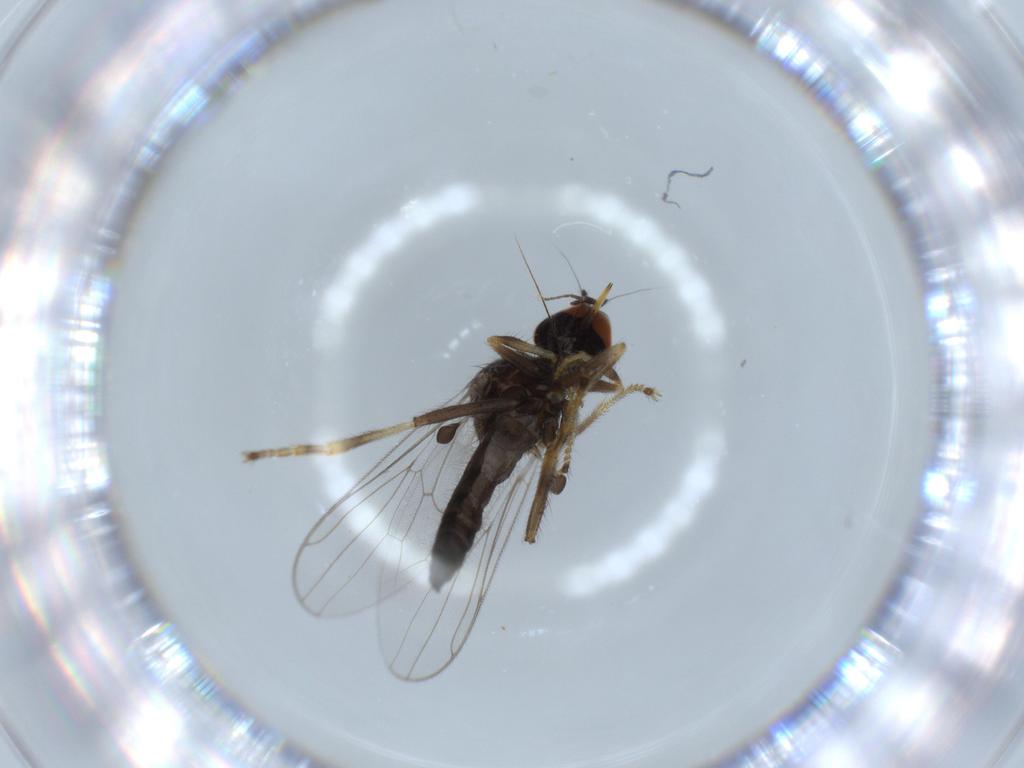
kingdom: Animalia
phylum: Arthropoda
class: Insecta
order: Diptera
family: Hybotidae
